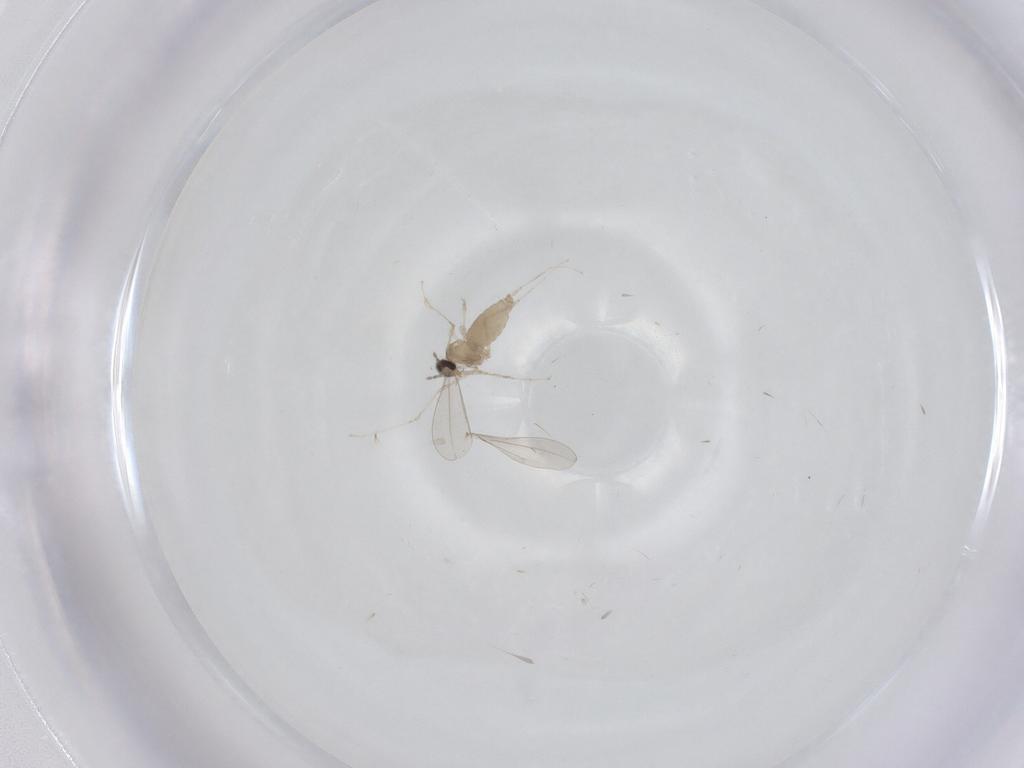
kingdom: Animalia
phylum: Arthropoda
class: Insecta
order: Diptera
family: Cecidomyiidae
